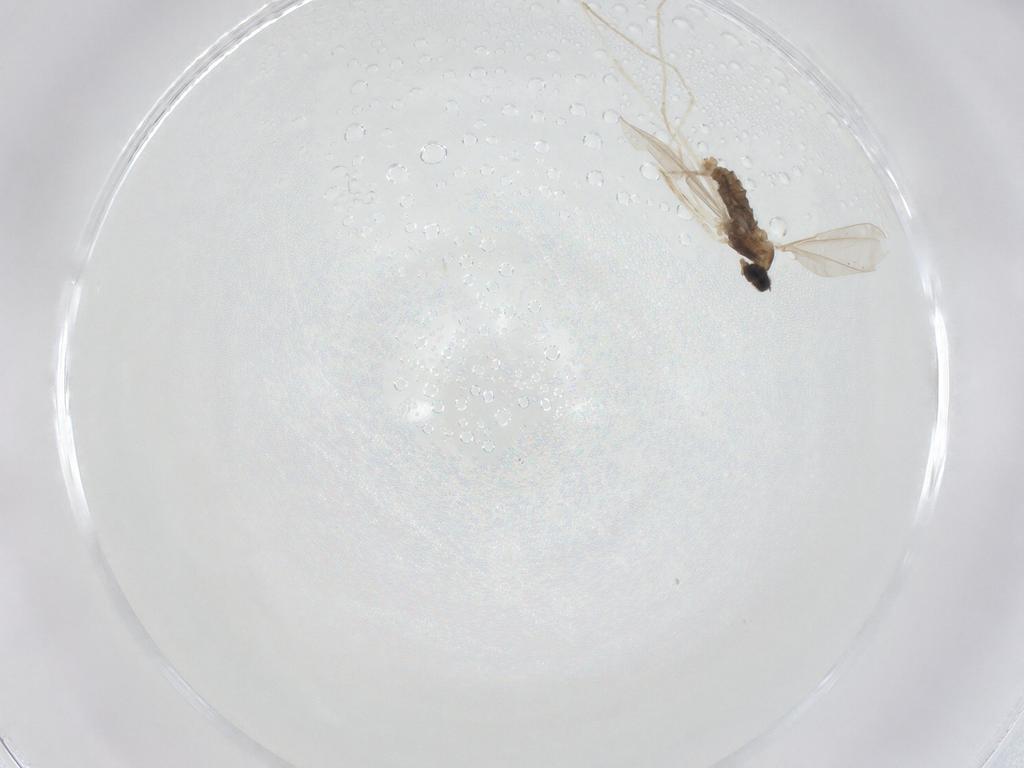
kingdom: Animalia
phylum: Arthropoda
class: Insecta
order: Diptera
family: Cecidomyiidae
